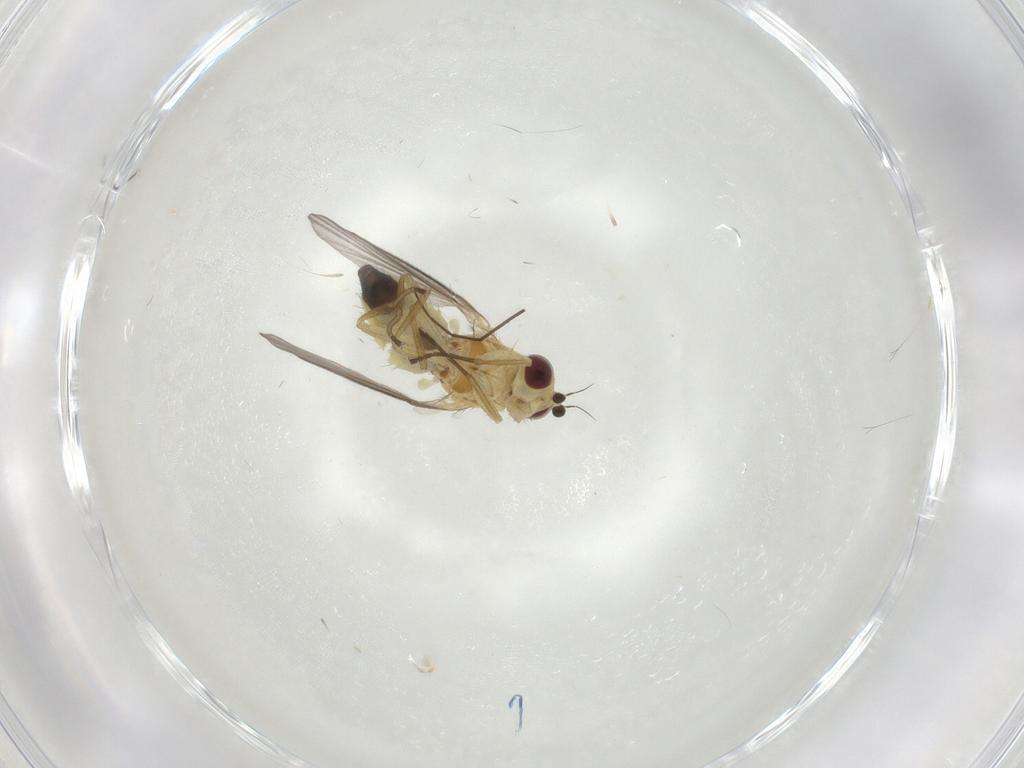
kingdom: Animalia
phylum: Arthropoda
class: Insecta
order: Diptera
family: Agromyzidae
